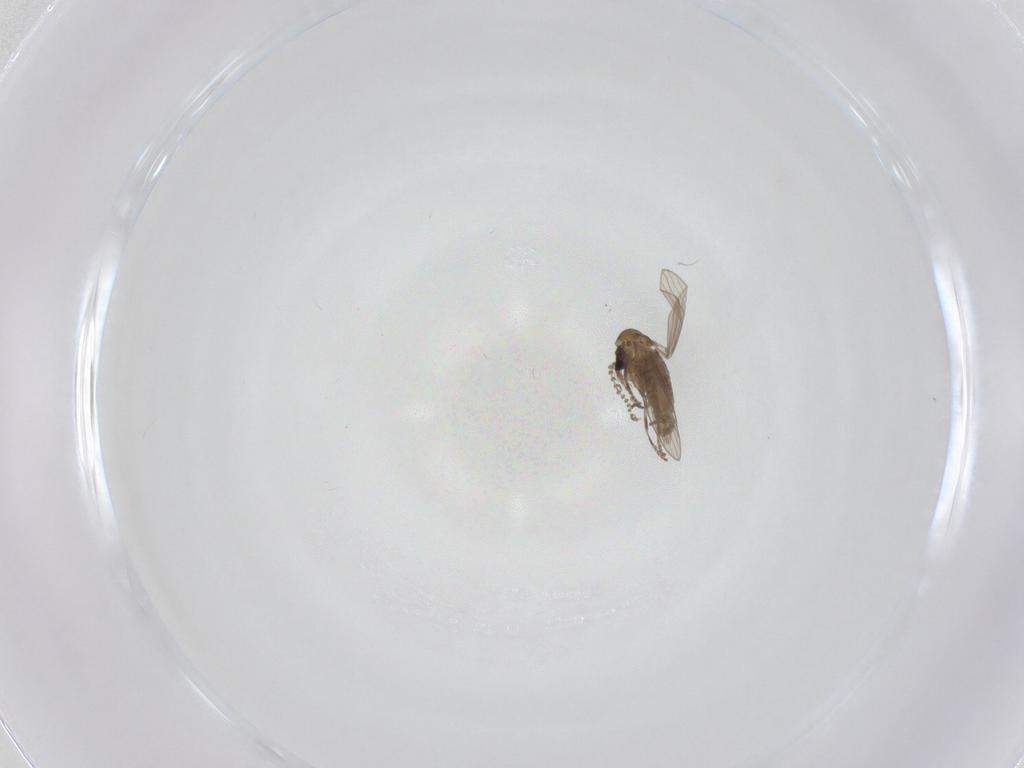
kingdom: Animalia
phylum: Arthropoda
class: Insecta
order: Diptera
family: Psychodidae
